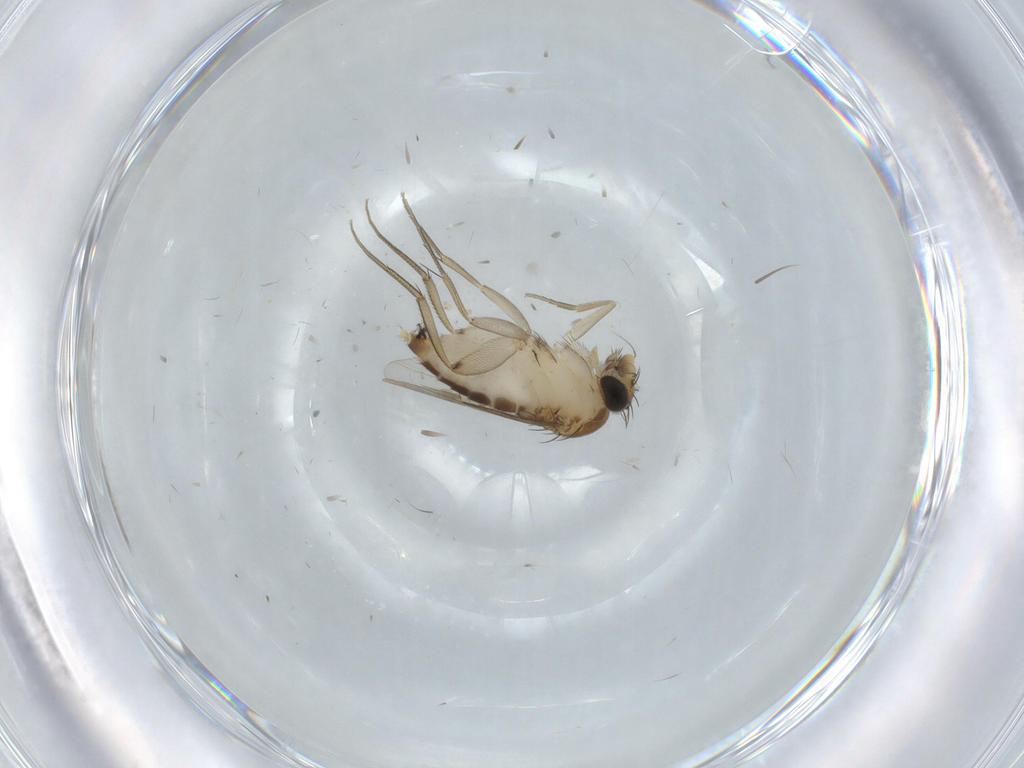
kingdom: Animalia
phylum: Arthropoda
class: Insecta
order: Diptera
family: Phoridae
